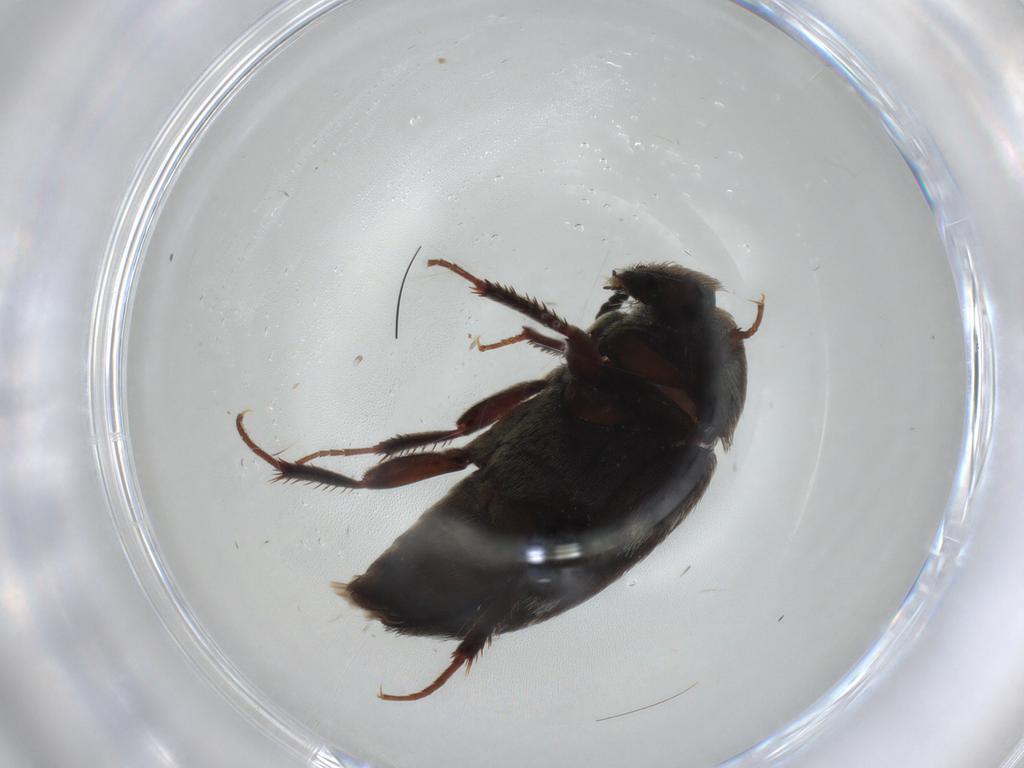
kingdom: Animalia
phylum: Arthropoda
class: Insecta
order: Coleoptera
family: Dermestidae
